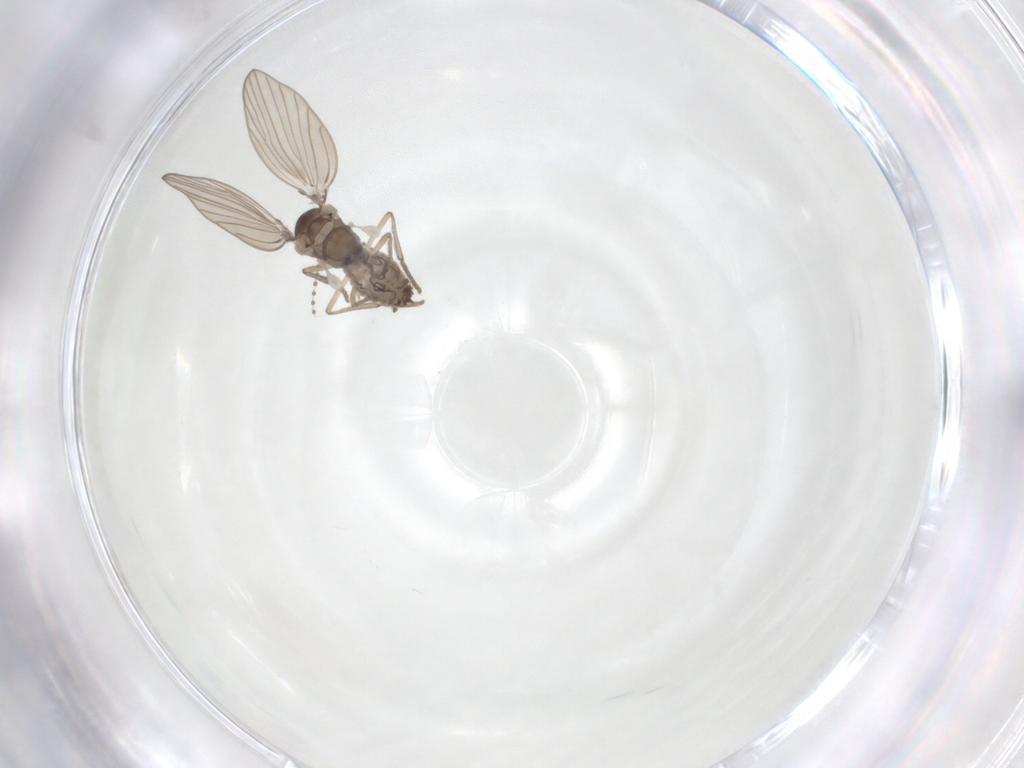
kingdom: Animalia
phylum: Arthropoda
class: Insecta
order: Diptera
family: Psychodidae
